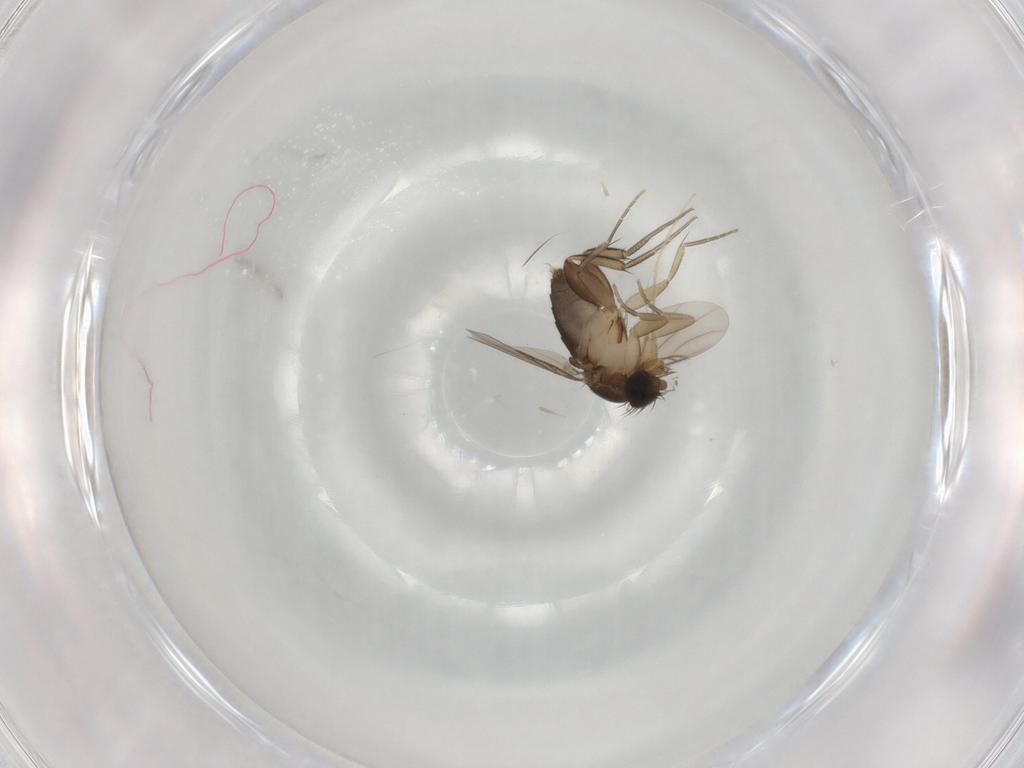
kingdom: Animalia
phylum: Arthropoda
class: Insecta
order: Diptera
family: Phoridae
